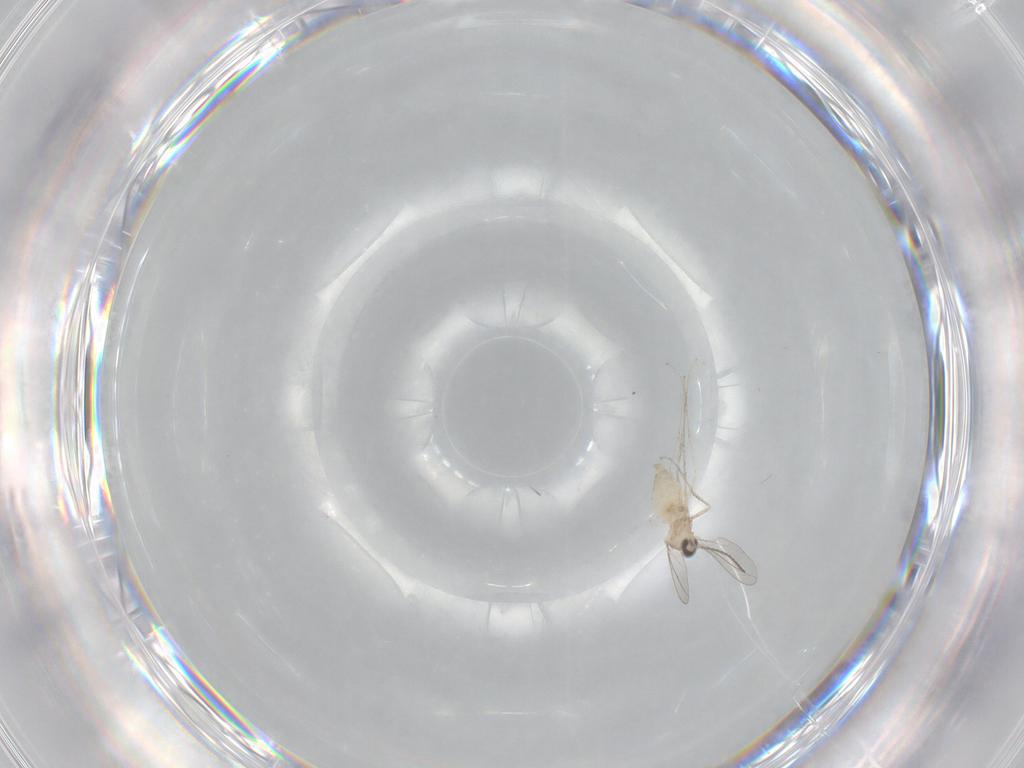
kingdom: Animalia
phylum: Arthropoda
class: Insecta
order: Diptera
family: Cecidomyiidae
